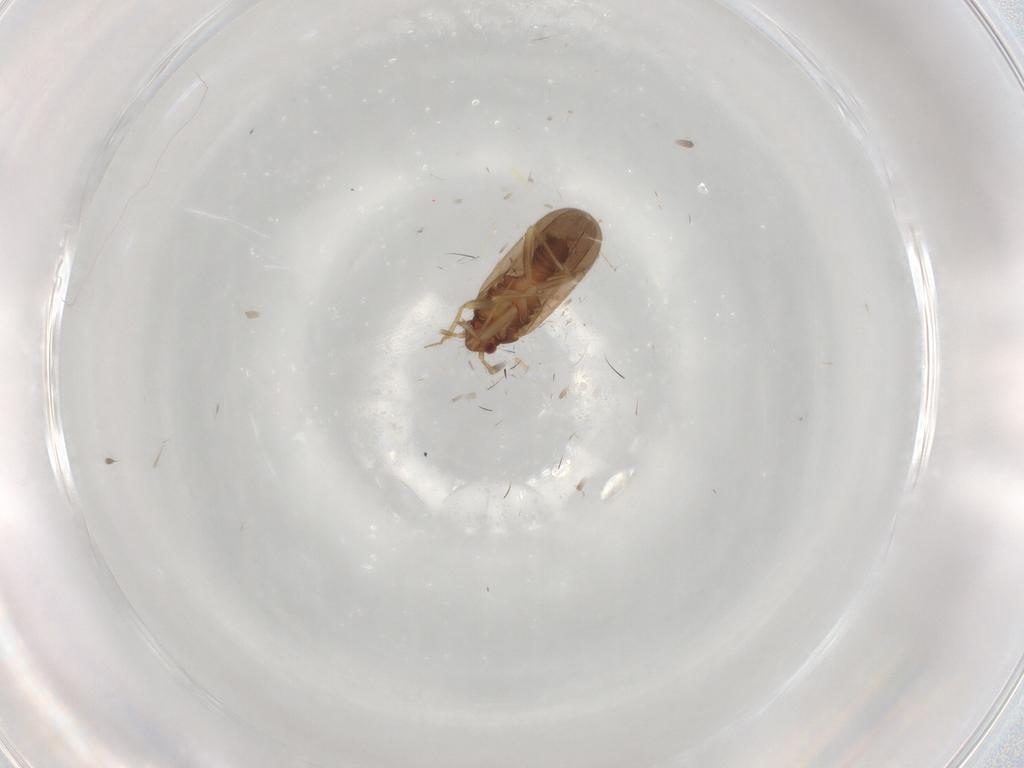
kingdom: Animalia
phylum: Arthropoda
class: Insecta
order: Hemiptera
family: Ceratocombidae
